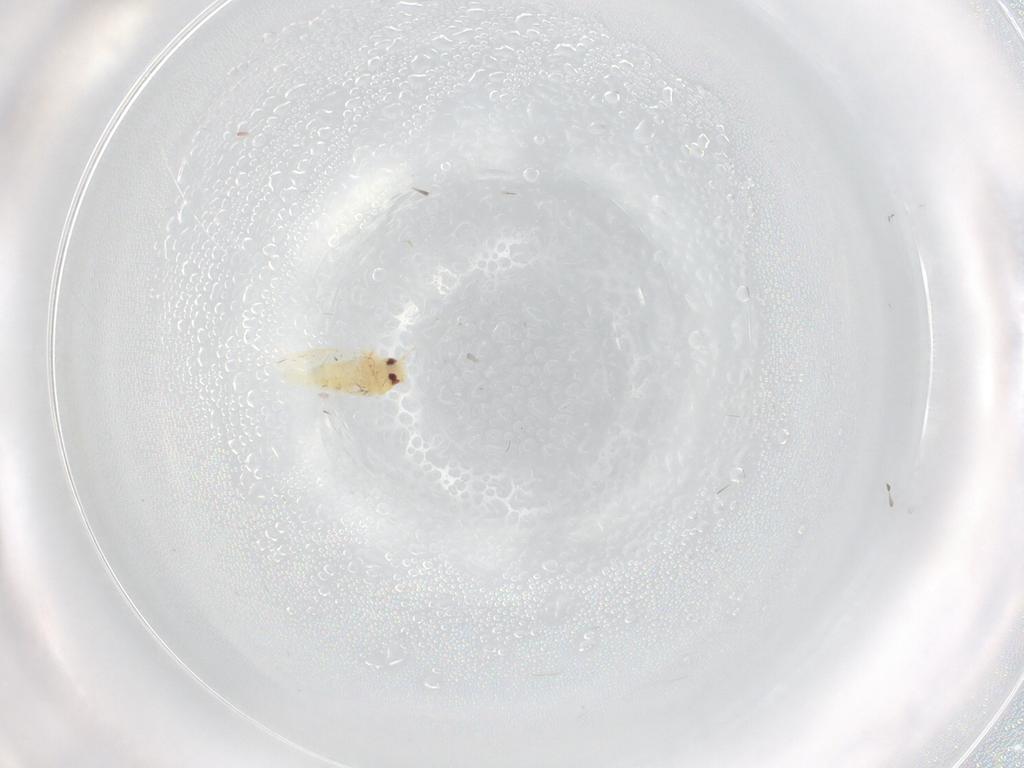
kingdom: Animalia
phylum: Arthropoda
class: Insecta
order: Hemiptera
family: Aleyrodidae
